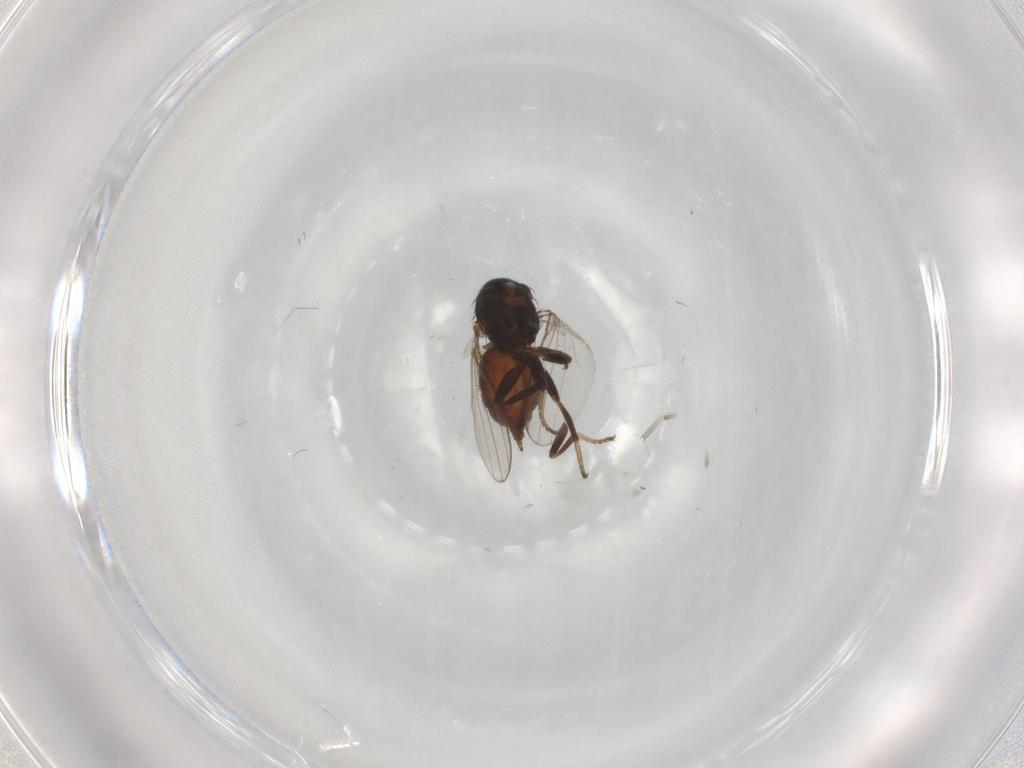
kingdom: Animalia
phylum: Arthropoda
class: Insecta
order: Diptera
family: Milichiidae
